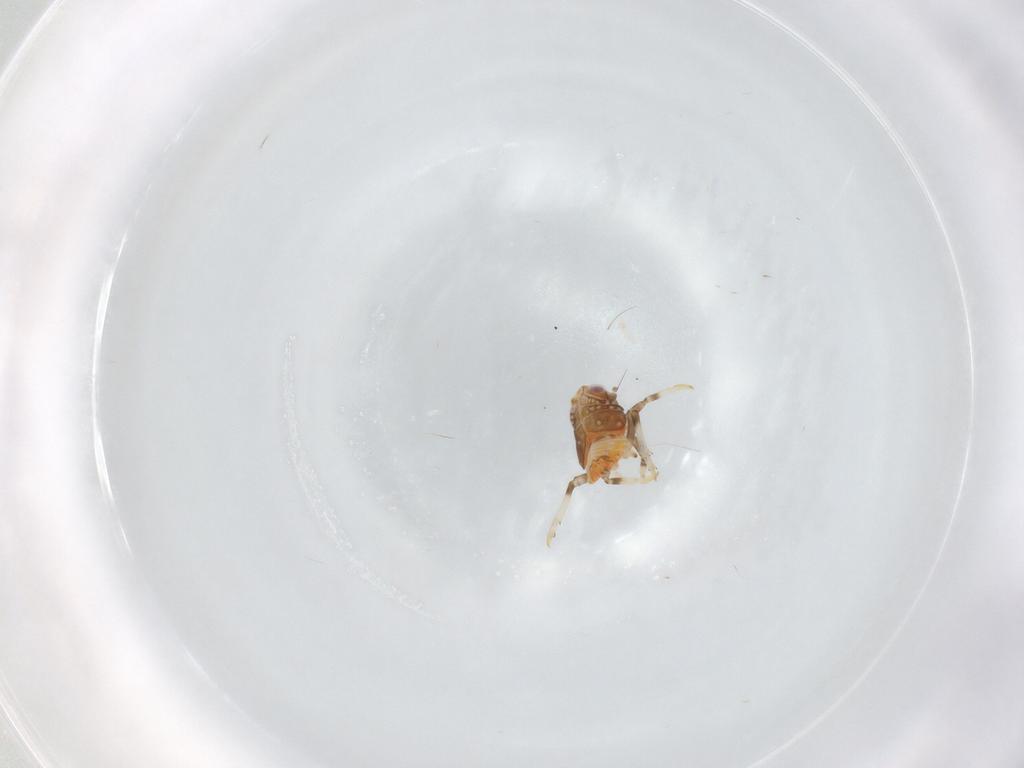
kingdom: Animalia
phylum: Arthropoda
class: Insecta
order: Hemiptera
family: Issidae
